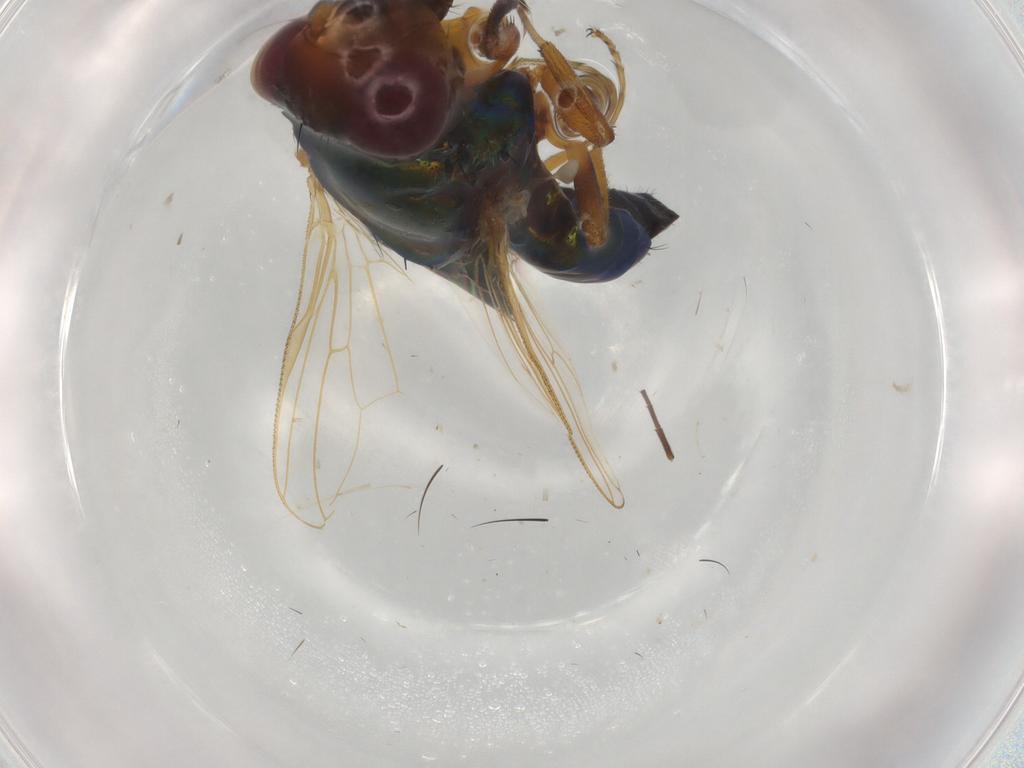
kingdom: Animalia
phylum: Arthropoda
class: Insecta
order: Diptera
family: Ulidiidae
